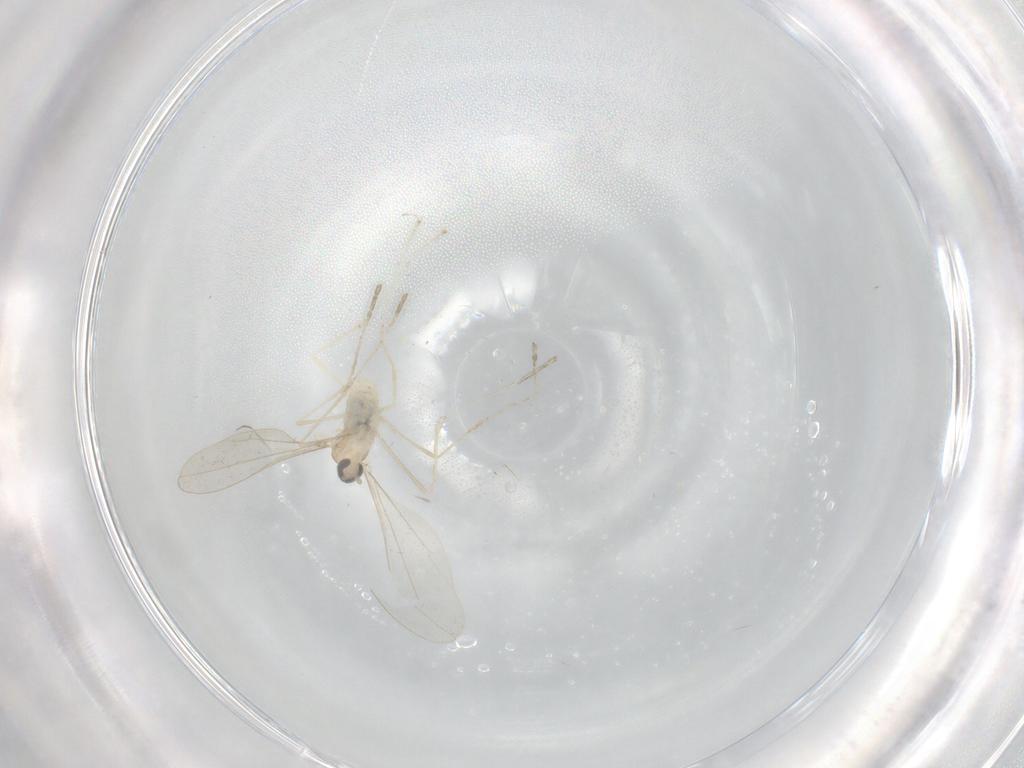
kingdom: Animalia
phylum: Arthropoda
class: Insecta
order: Diptera
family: Cecidomyiidae
